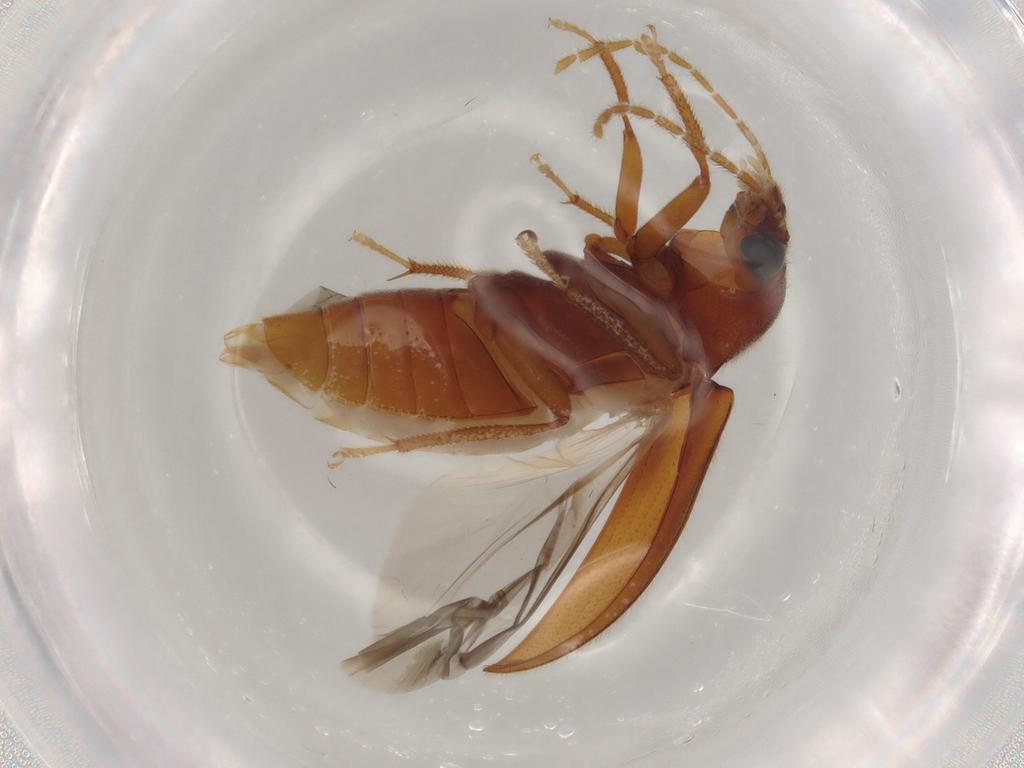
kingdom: Animalia
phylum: Arthropoda
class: Insecta
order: Coleoptera
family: Ptilodactylidae
